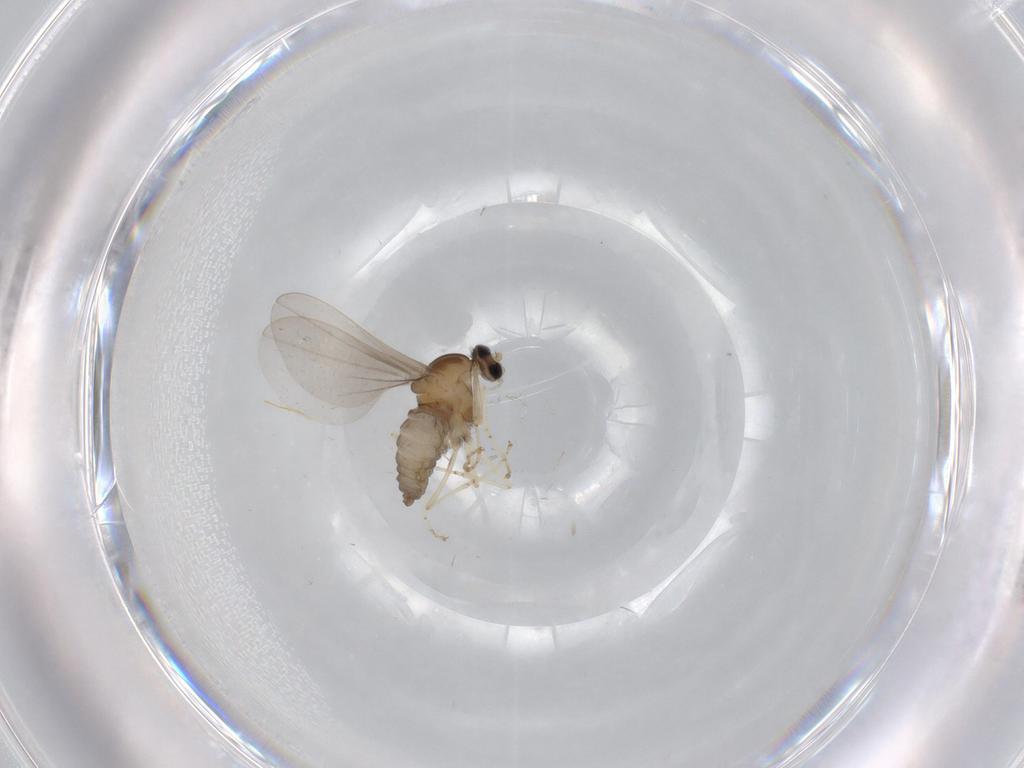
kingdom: Animalia
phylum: Arthropoda
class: Insecta
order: Diptera
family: Cecidomyiidae
